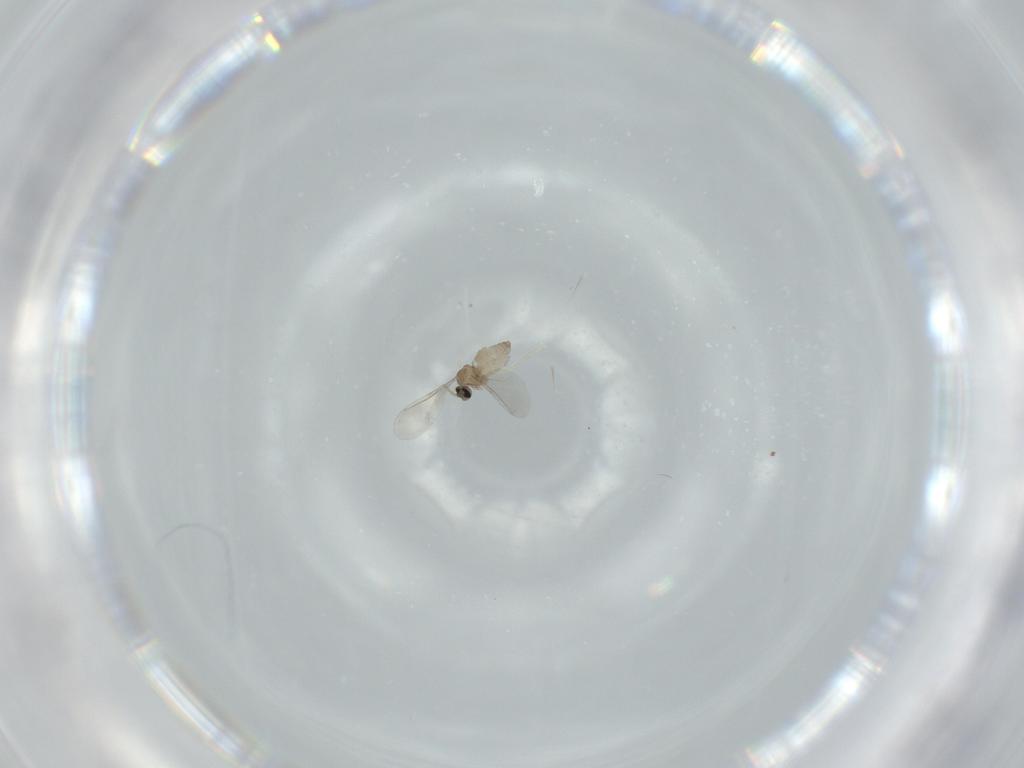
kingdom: Animalia
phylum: Arthropoda
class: Insecta
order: Diptera
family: Cecidomyiidae
